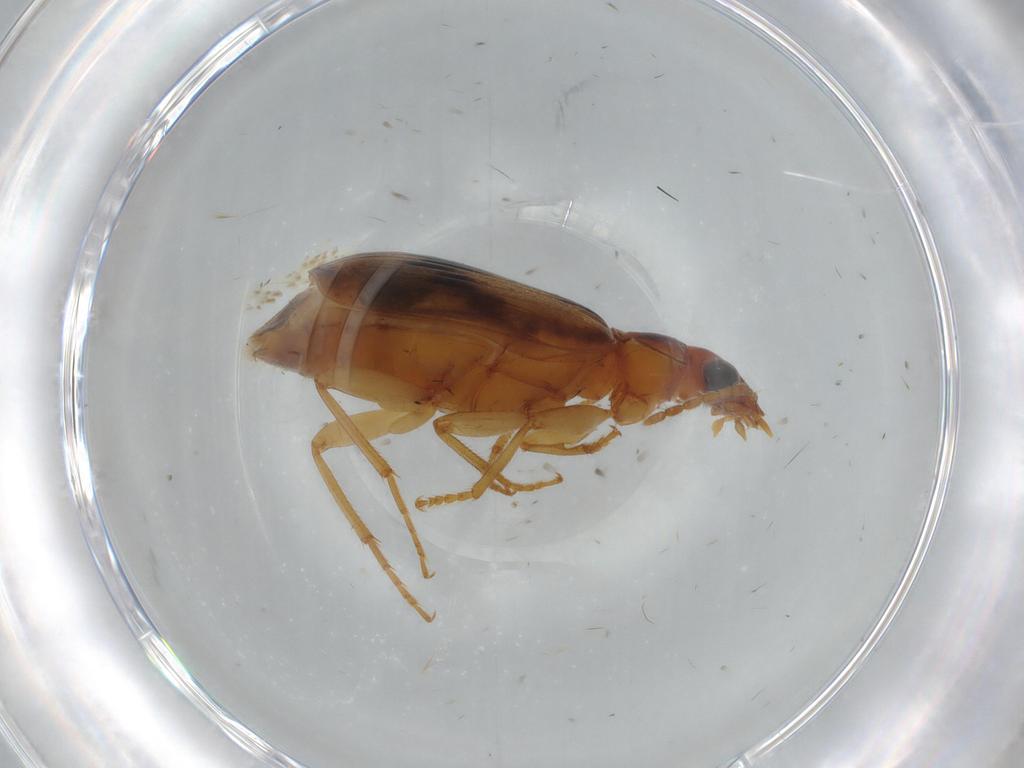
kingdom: Animalia
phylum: Arthropoda
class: Insecta
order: Coleoptera
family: Carabidae
